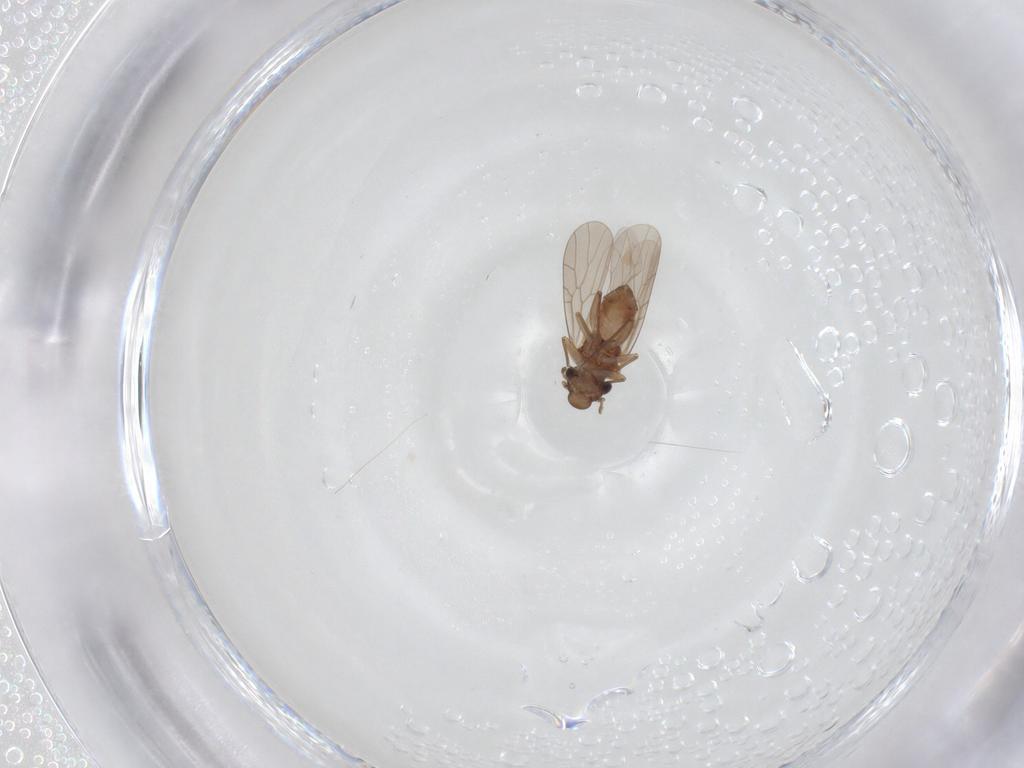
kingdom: Animalia
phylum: Arthropoda
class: Insecta
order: Psocodea
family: Lepidopsocidae
